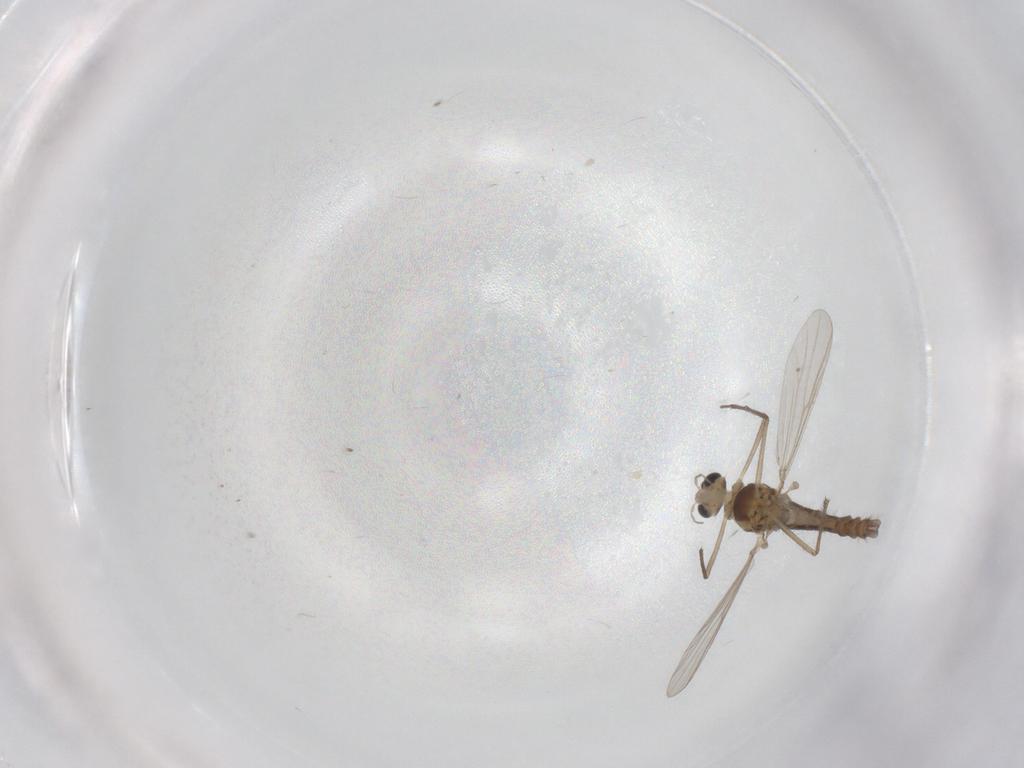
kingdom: Animalia
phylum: Arthropoda
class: Insecta
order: Diptera
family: Chironomidae
